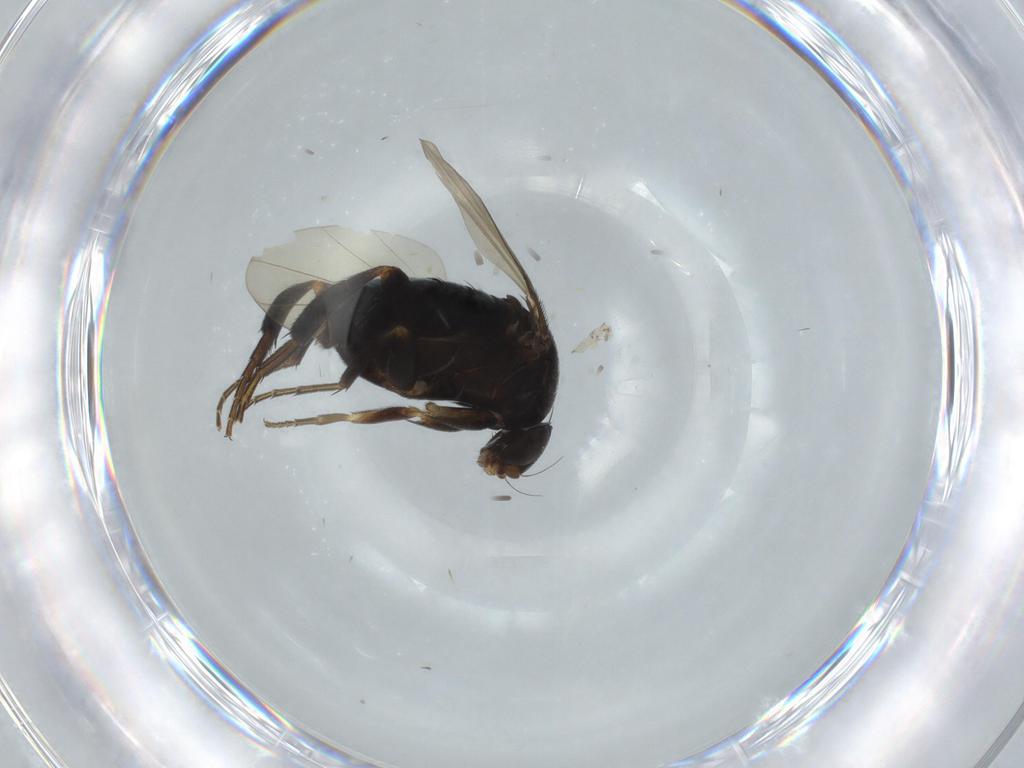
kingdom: Animalia
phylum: Arthropoda
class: Insecta
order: Diptera
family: Phoridae
